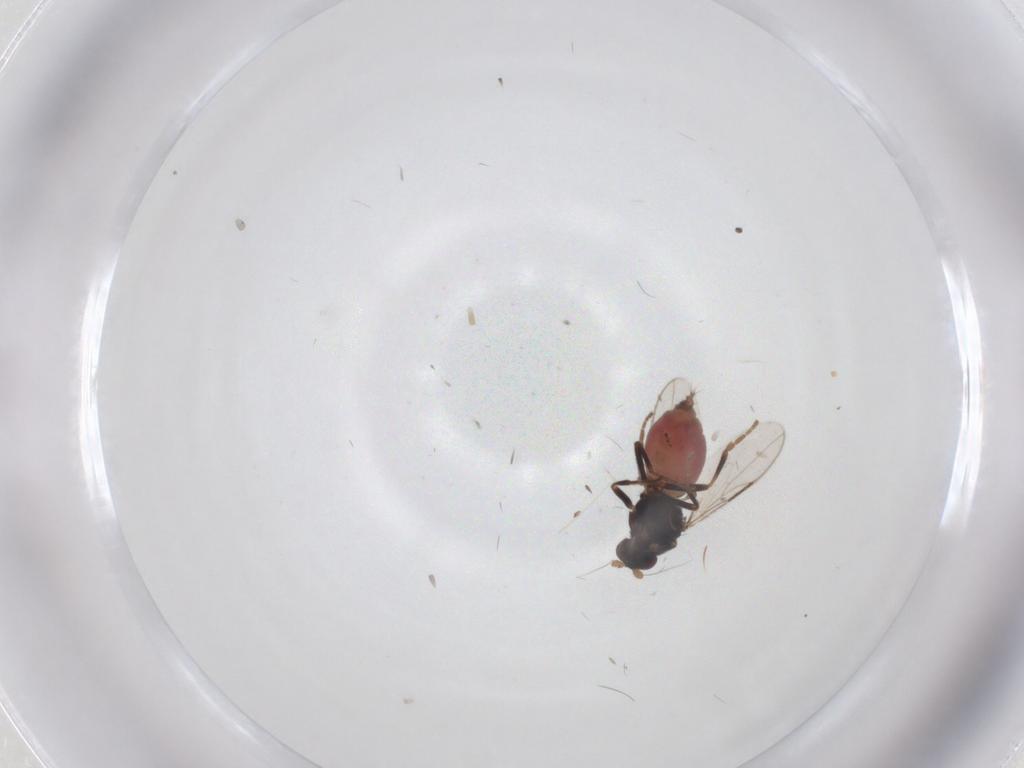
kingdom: Animalia
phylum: Arthropoda
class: Insecta
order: Diptera
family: Sphaeroceridae
